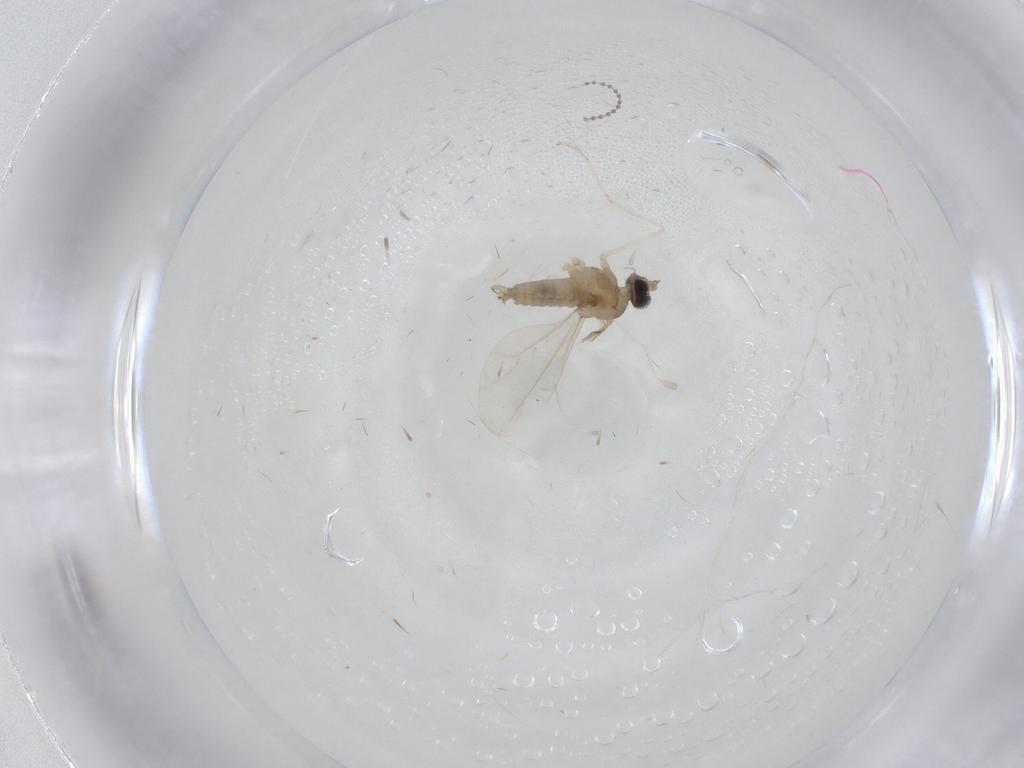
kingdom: Animalia
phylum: Arthropoda
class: Insecta
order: Diptera
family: Cecidomyiidae
